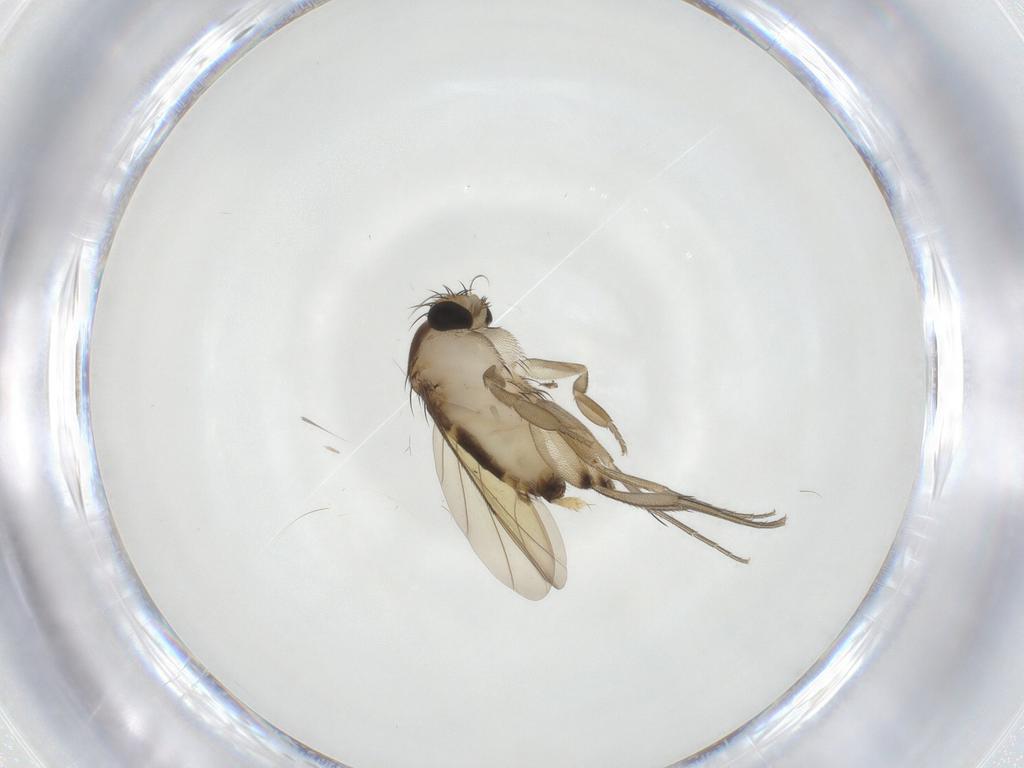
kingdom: Animalia
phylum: Arthropoda
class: Insecta
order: Diptera
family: Phoridae
